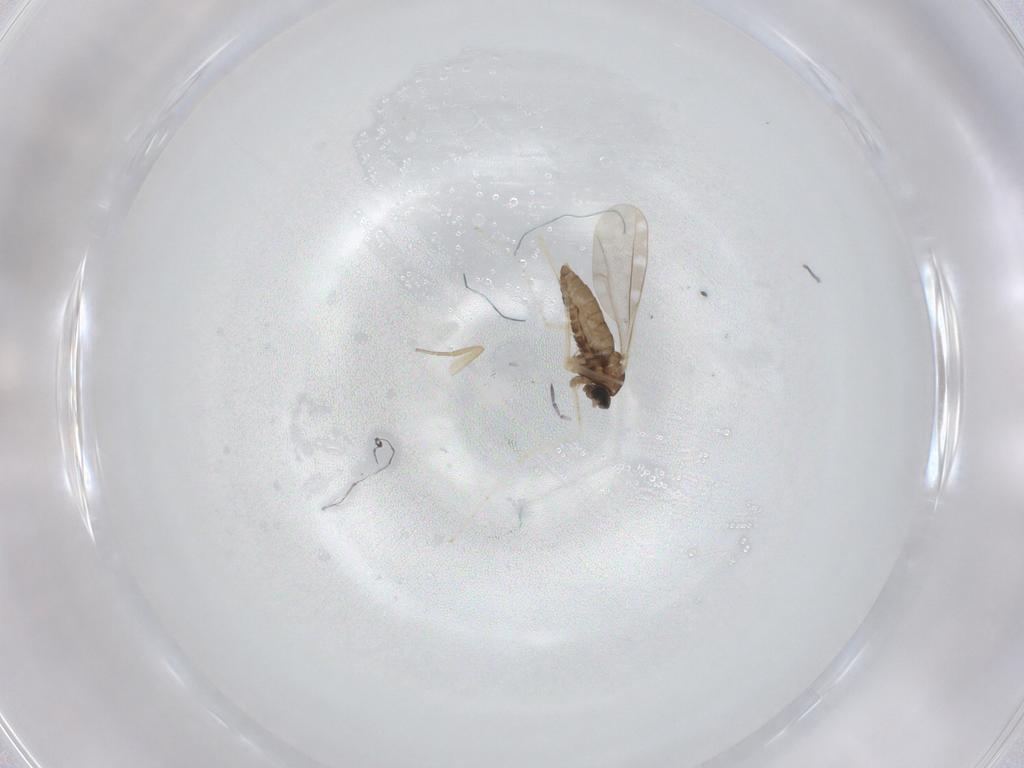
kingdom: Animalia
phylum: Arthropoda
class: Insecta
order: Diptera
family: Cecidomyiidae
